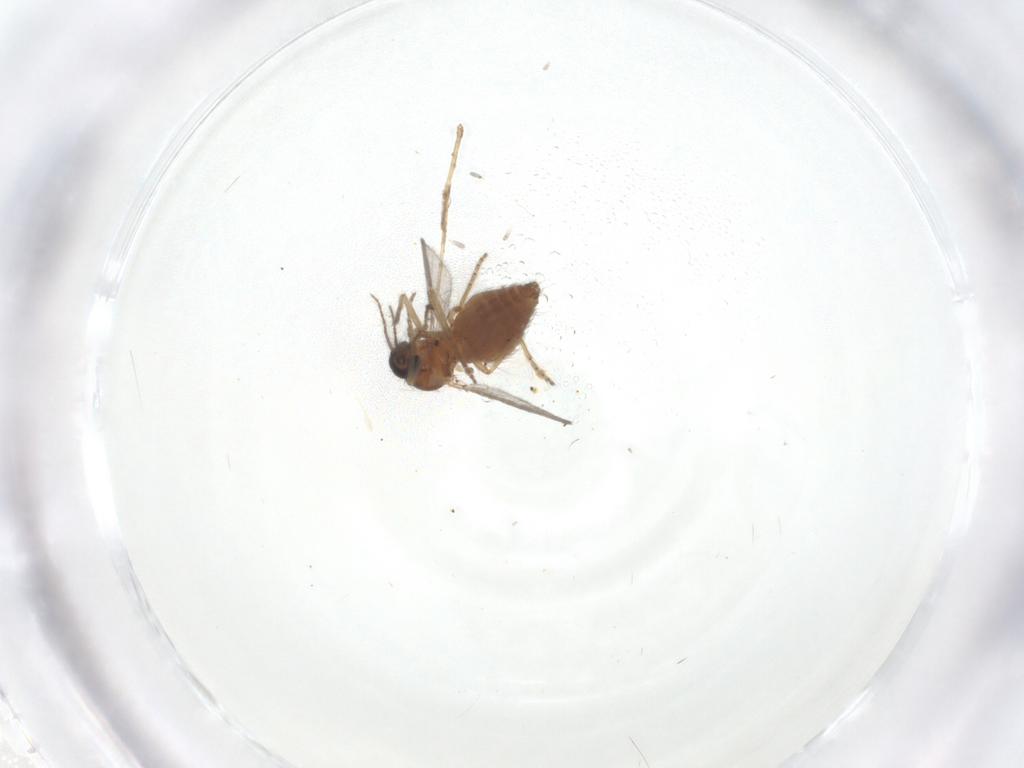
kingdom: Animalia
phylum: Arthropoda
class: Insecta
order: Diptera
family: Ceratopogonidae
